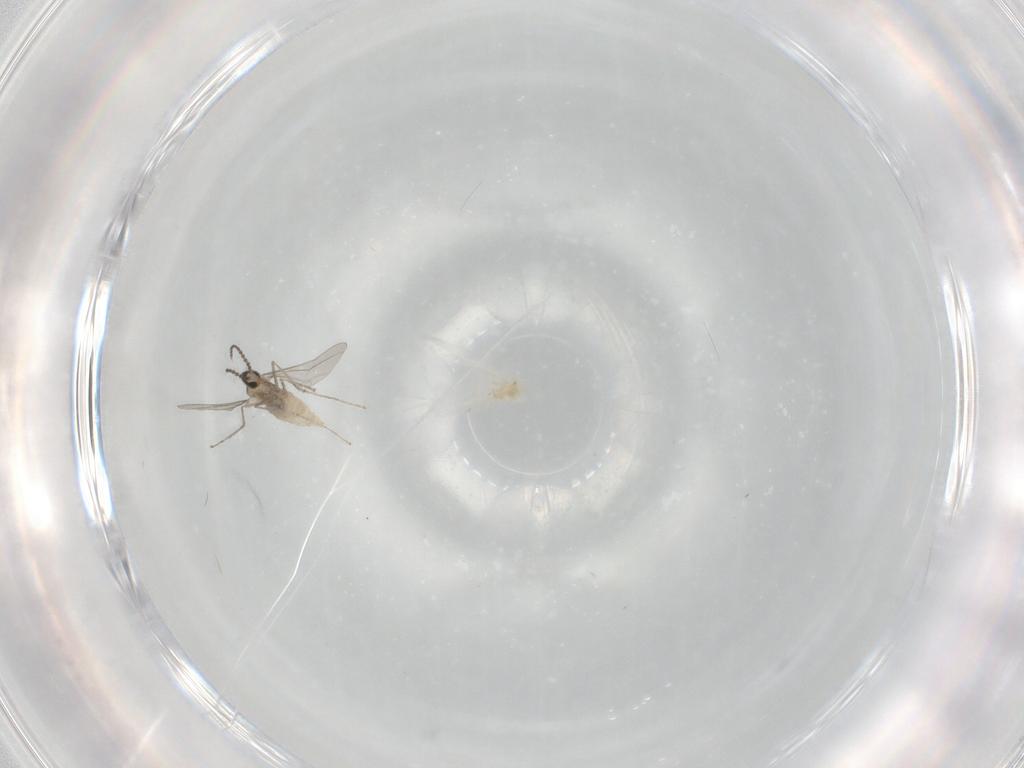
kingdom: Animalia
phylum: Arthropoda
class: Insecta
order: Diptera
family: Cecidomyiidae
